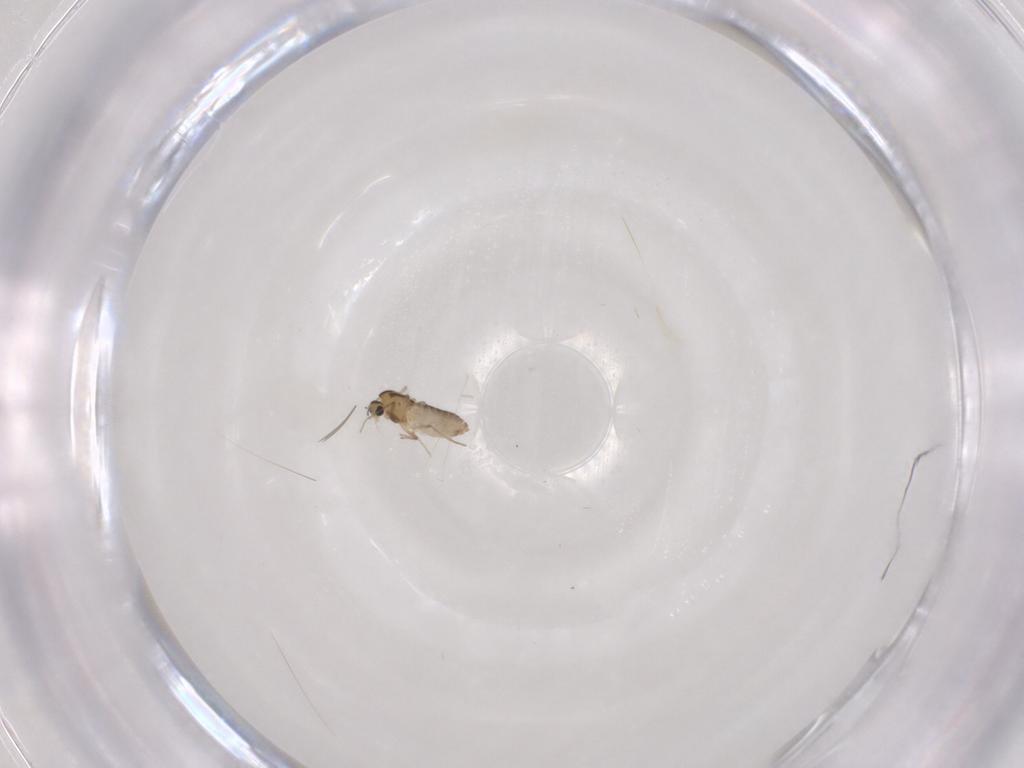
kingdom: Animalia
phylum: Arthropoda
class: Insecta
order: Diptera
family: Chironomidae
